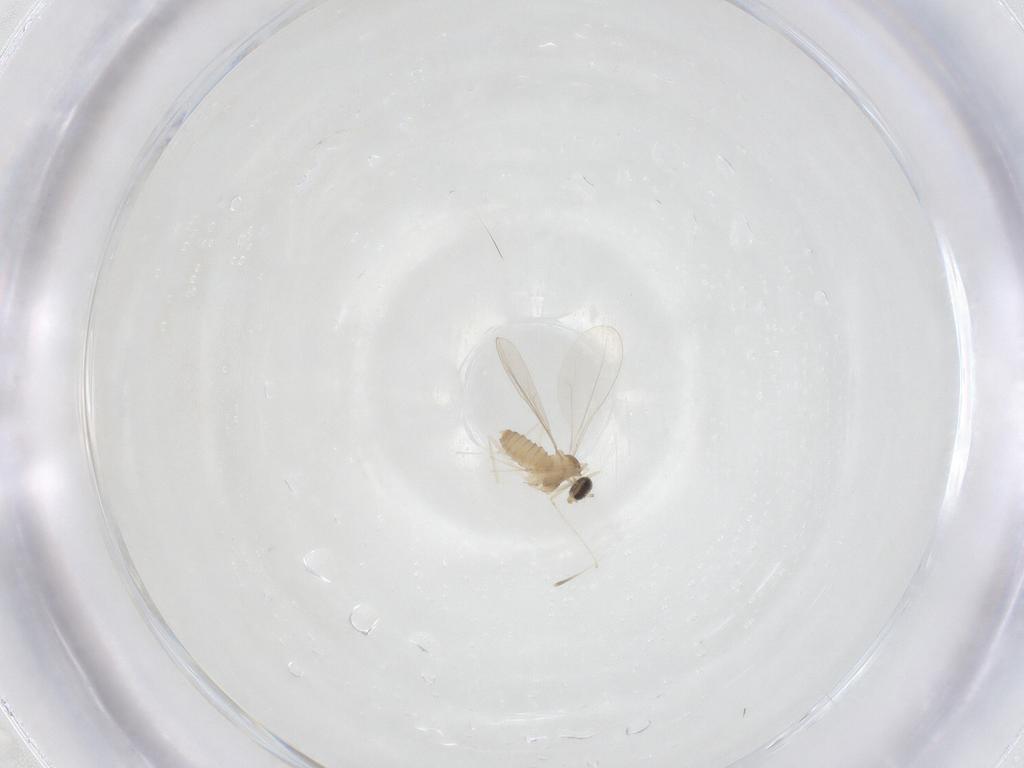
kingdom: Animalia
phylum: Arthropoda
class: Insecta
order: Diptera
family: Cecidomyiidae
